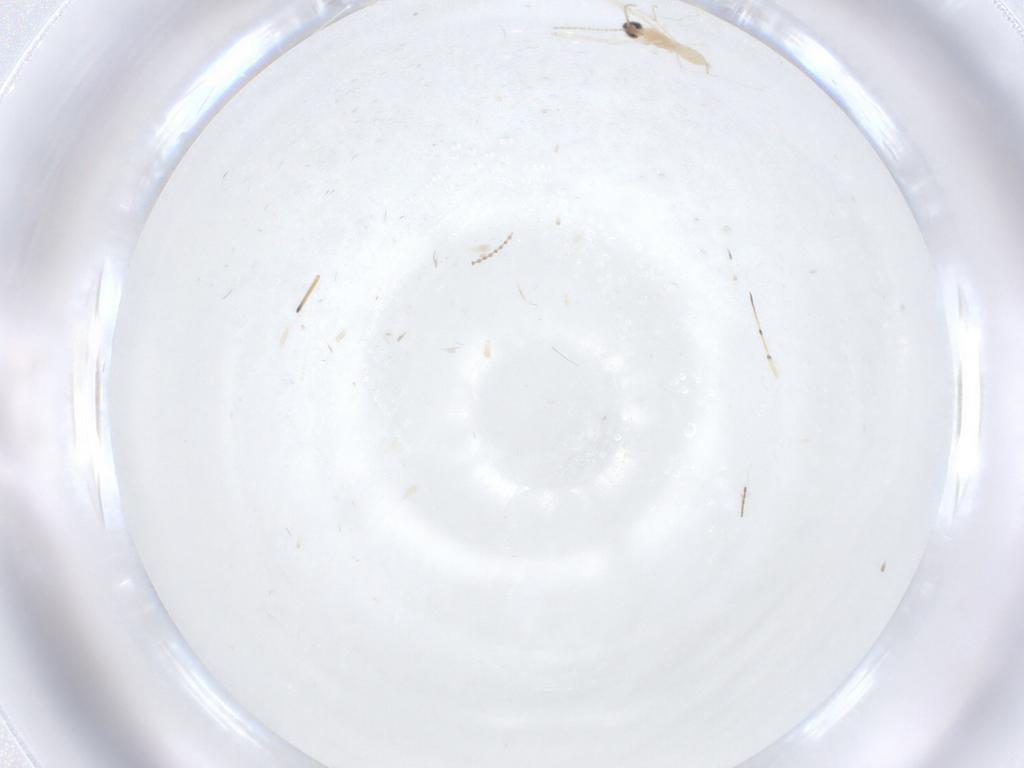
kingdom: Animalia
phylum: Arthropoda
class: Insecta
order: Diptera
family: Cecidomyiidae
